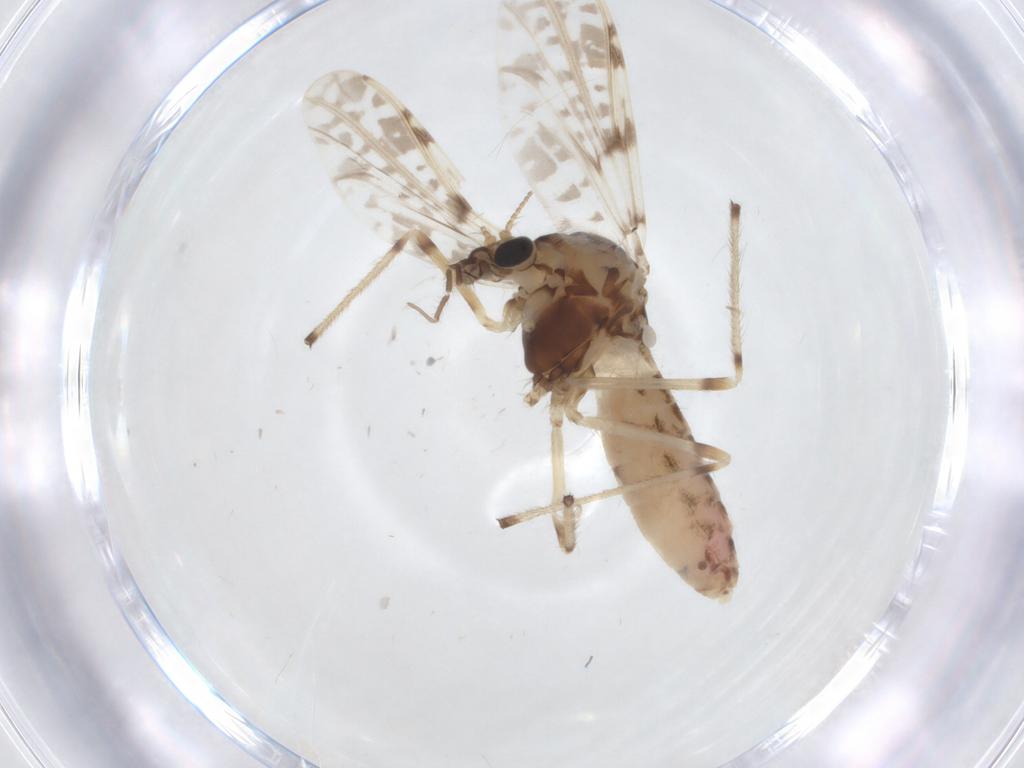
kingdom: Animalia
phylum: Arthropoda
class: Insecta
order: Diptera
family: Chironomidae
